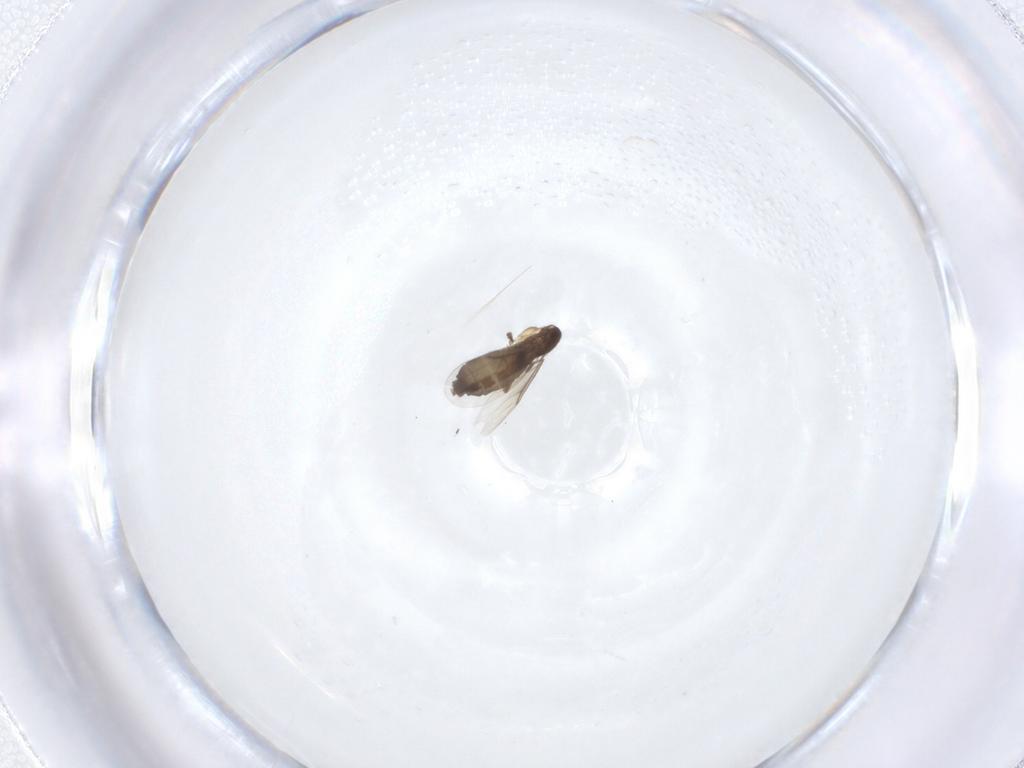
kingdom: Animalia
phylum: Arthropoda
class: Insecta
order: Diptera
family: Phoridae
